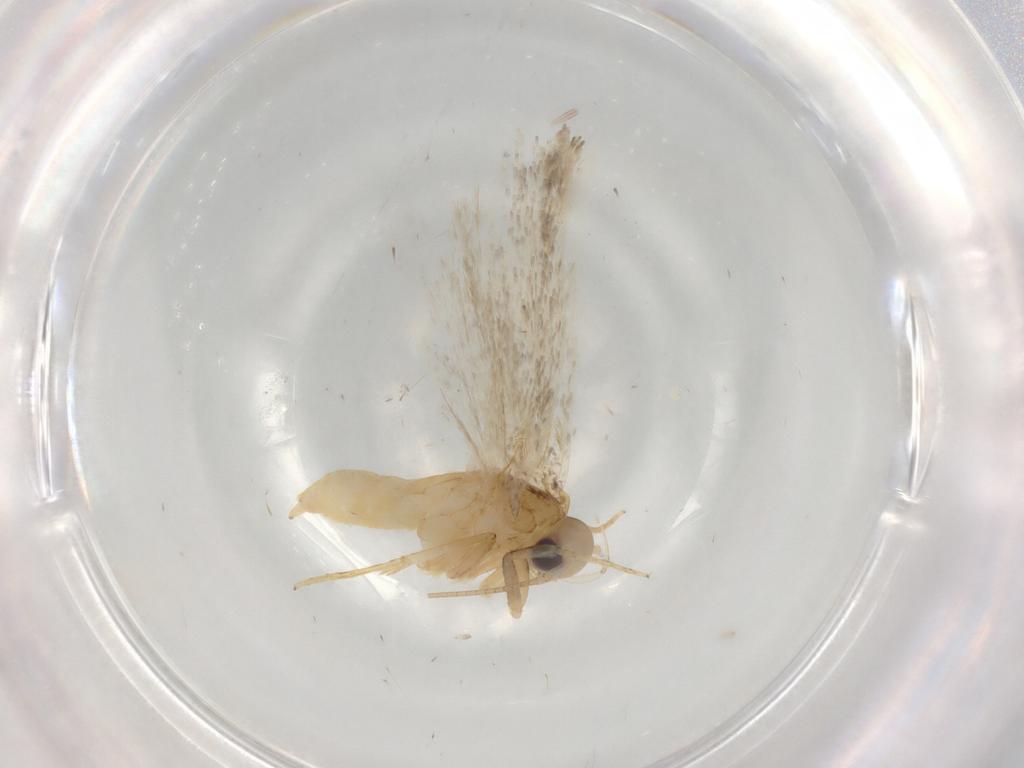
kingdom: Animalia
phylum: Arthropoda
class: Insecta
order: Lepidoptera
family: Autostichidae
